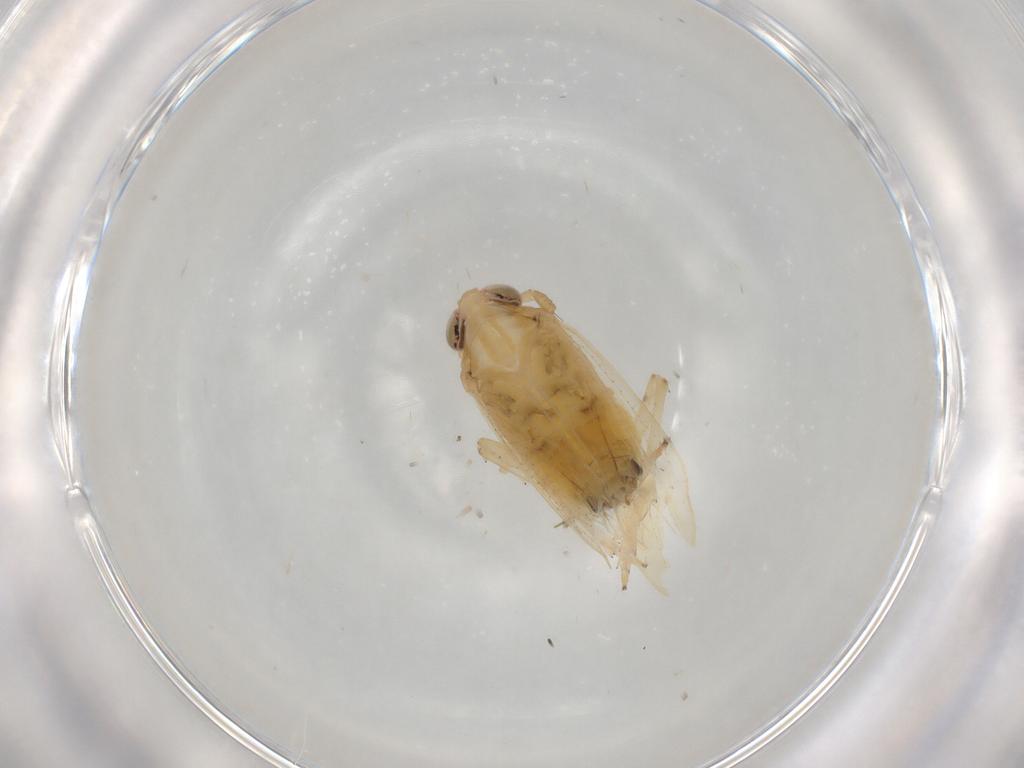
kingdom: Animalia
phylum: Arthropoda
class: Insecta
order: Hemiptera
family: Delphacidae
